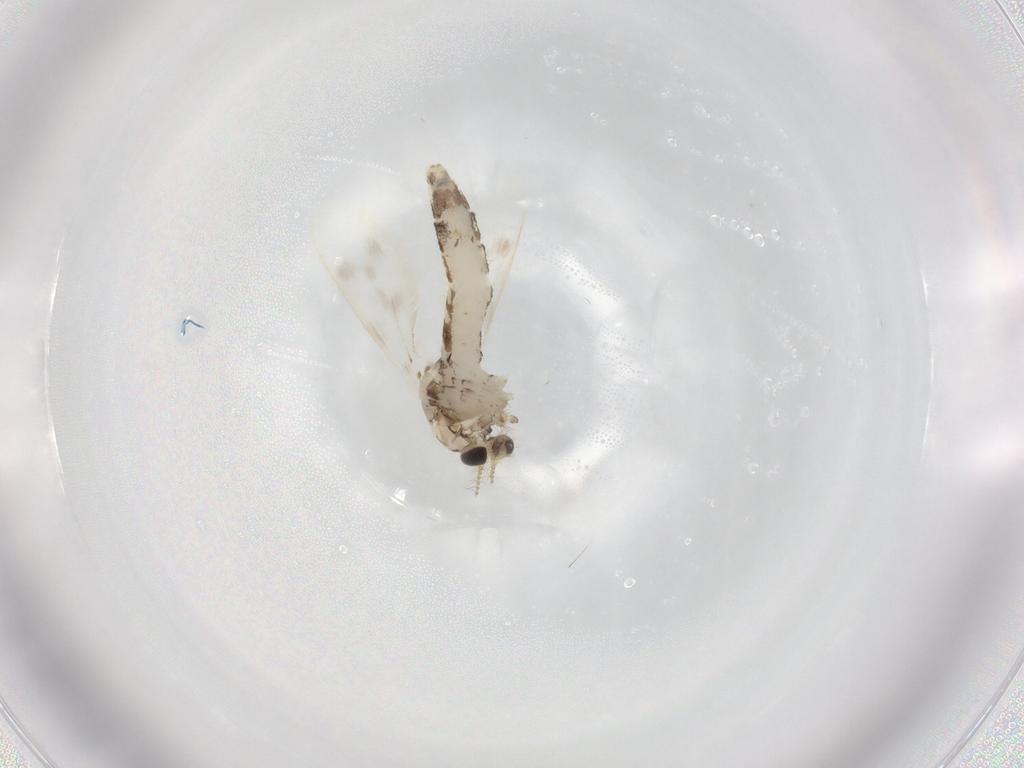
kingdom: Animalia
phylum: Arthropoda
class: Insecta
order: Diptera
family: Corethrellidae
